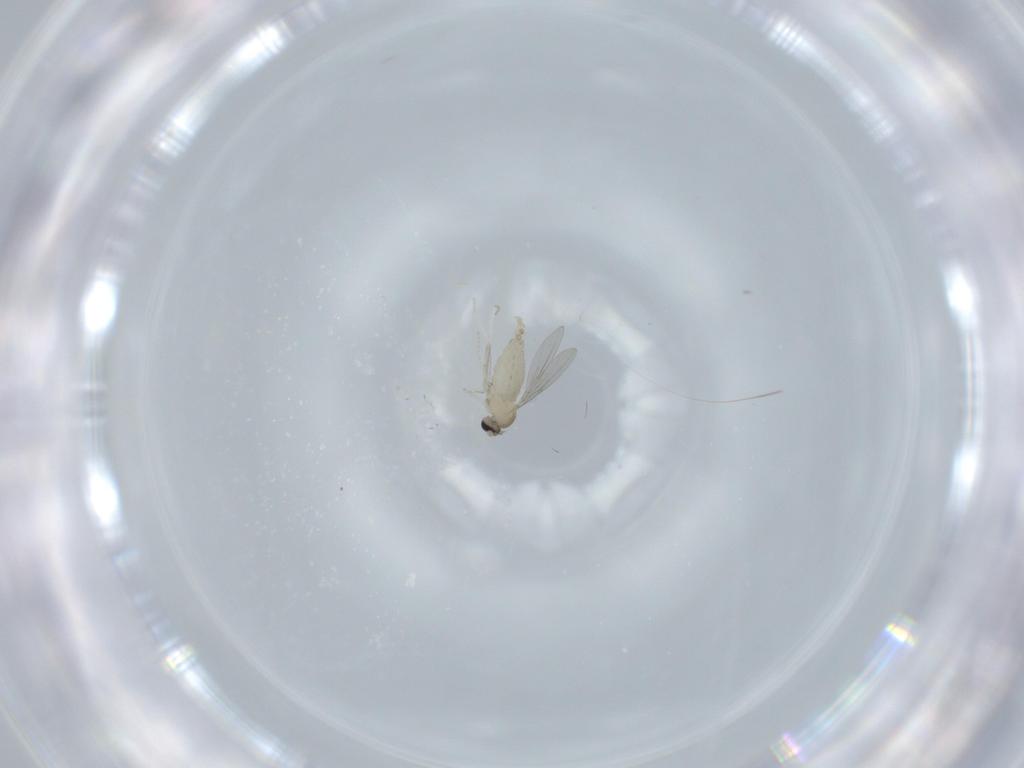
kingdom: Animalia
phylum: Arthropoda
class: Insecta
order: Diptera
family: Cecidomyiidae
